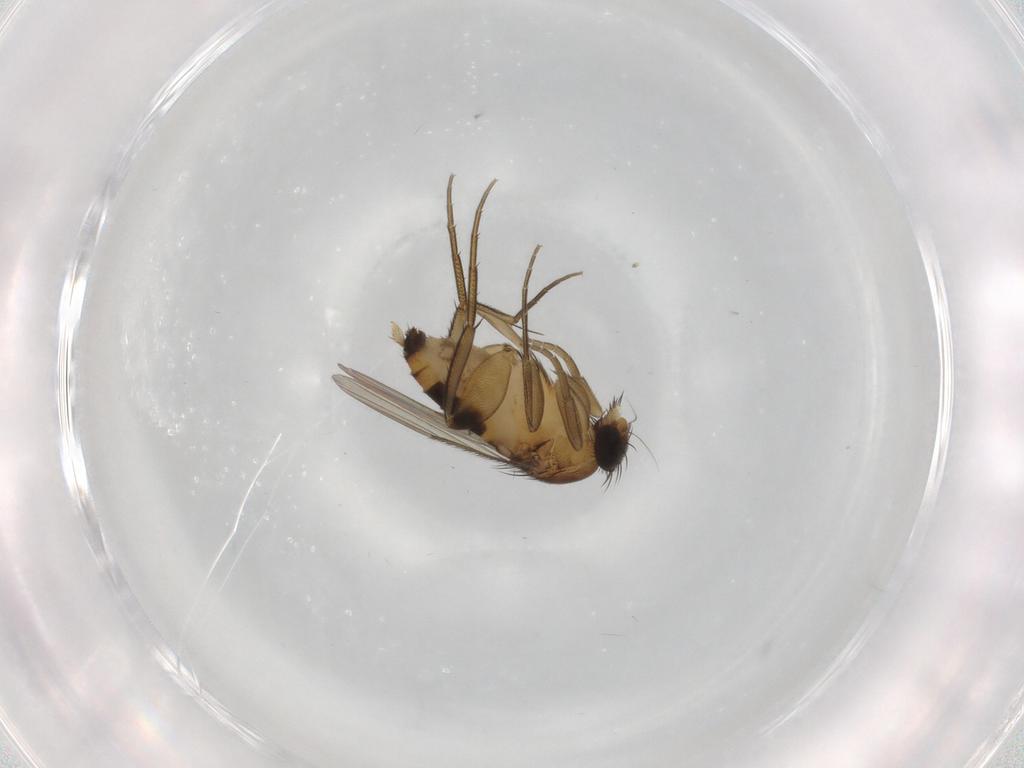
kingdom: Animalia
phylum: Arthropoda
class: Insecta
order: Diptera
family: Phoridae
